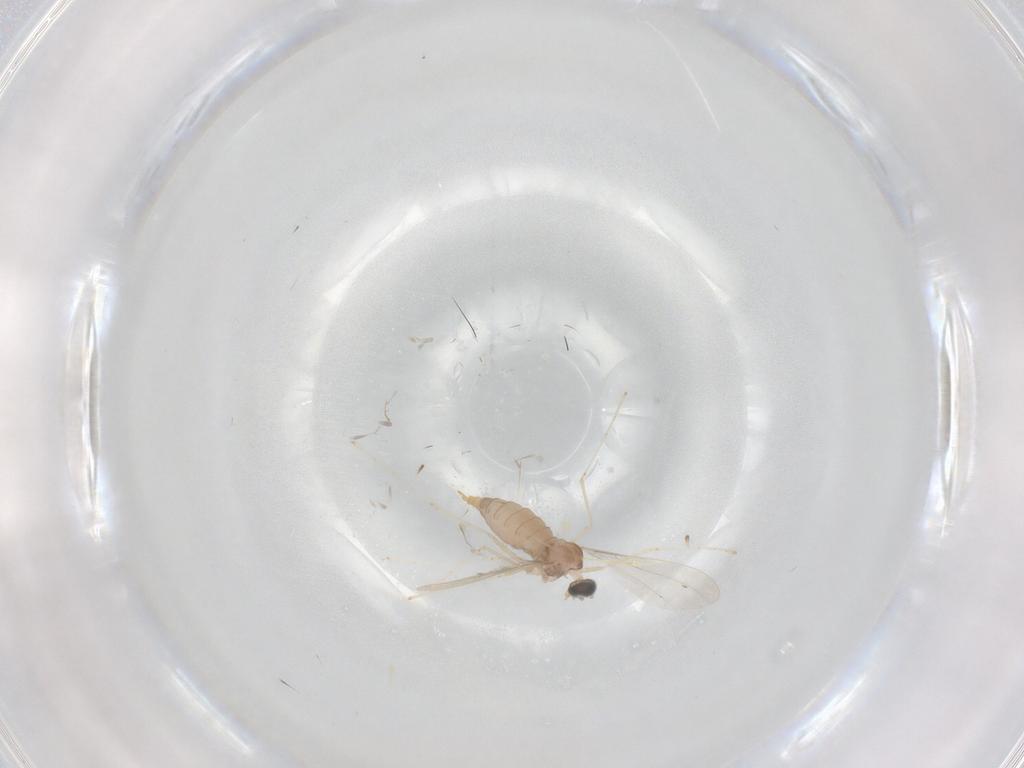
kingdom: Animalia
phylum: Arthropoda
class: Insecta
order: Diptera
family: Cecidomyiidae
